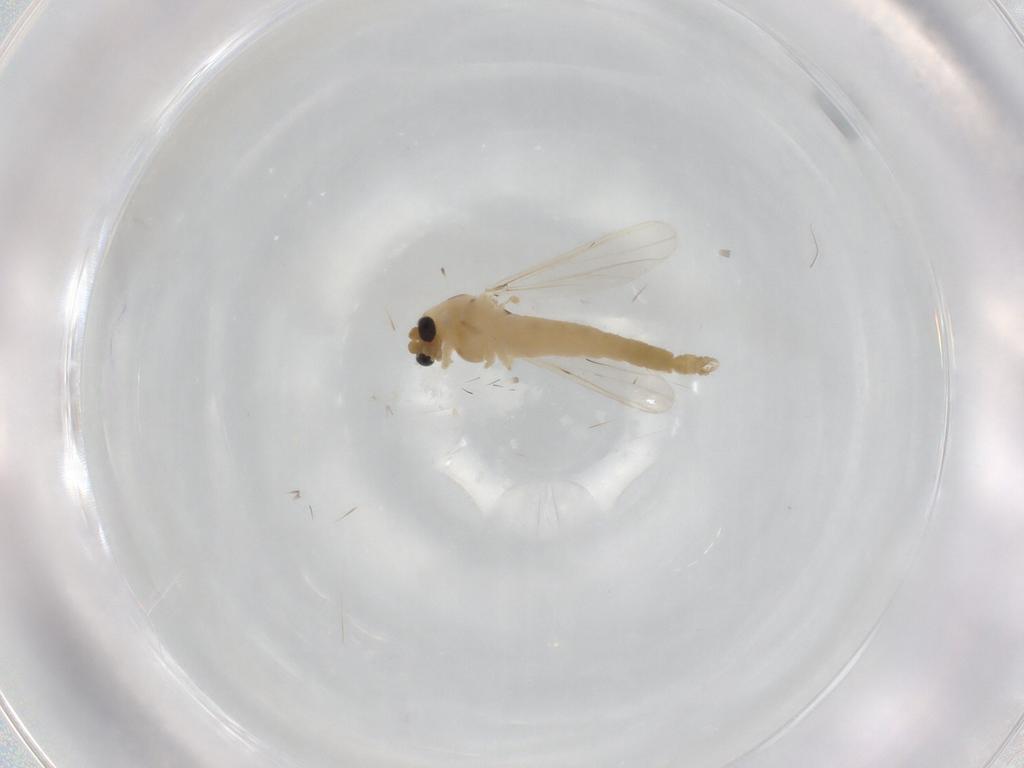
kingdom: Animalia
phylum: Arthropoda
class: Insecta
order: Diptera
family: Chironomidae
